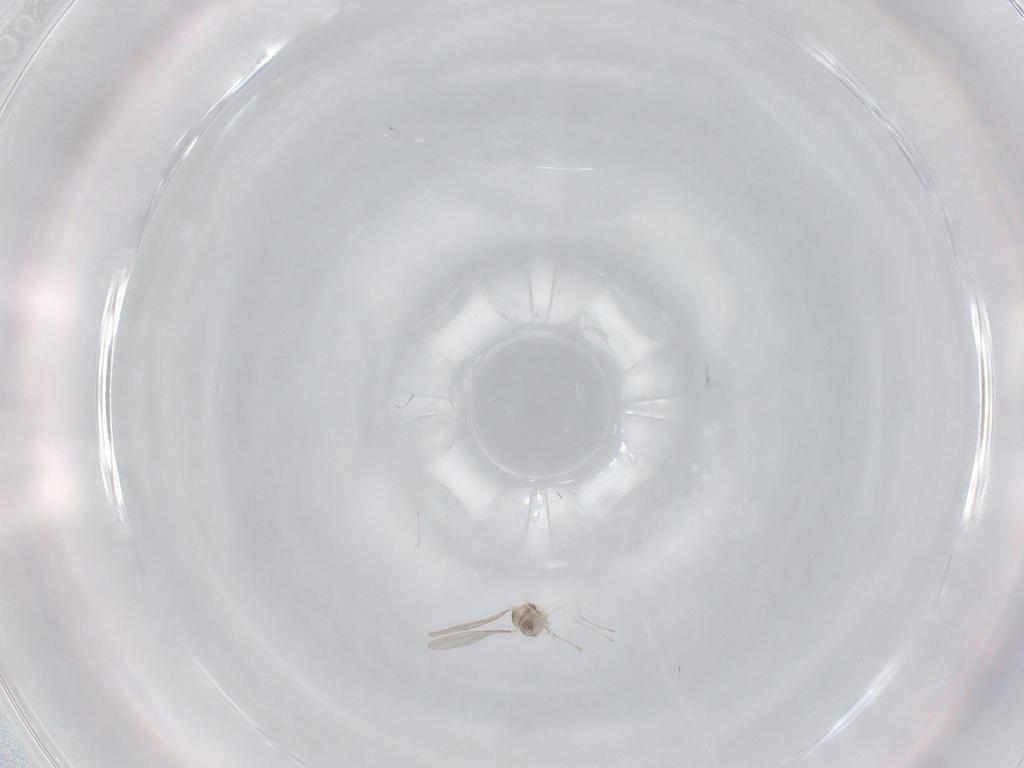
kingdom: Animalia
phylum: Arthropoda
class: Insecta
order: Diptera
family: Cecidomyiidae
